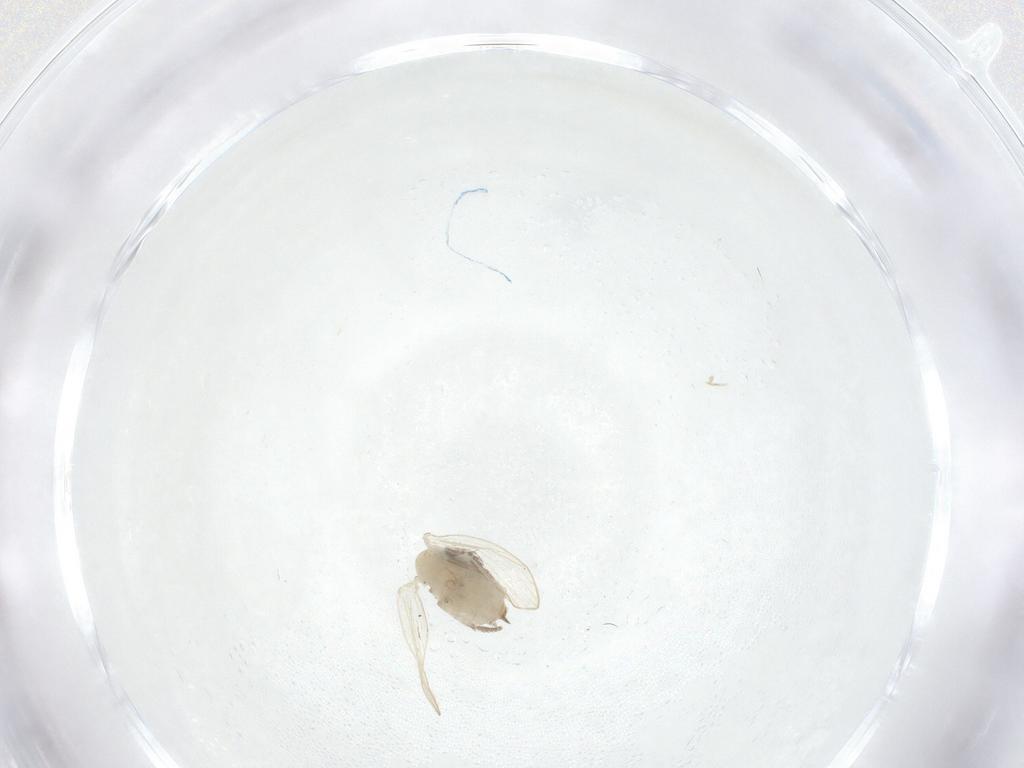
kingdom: Animalia
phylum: Arthropoda
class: Insecta
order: Diptera
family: Psychodidae
